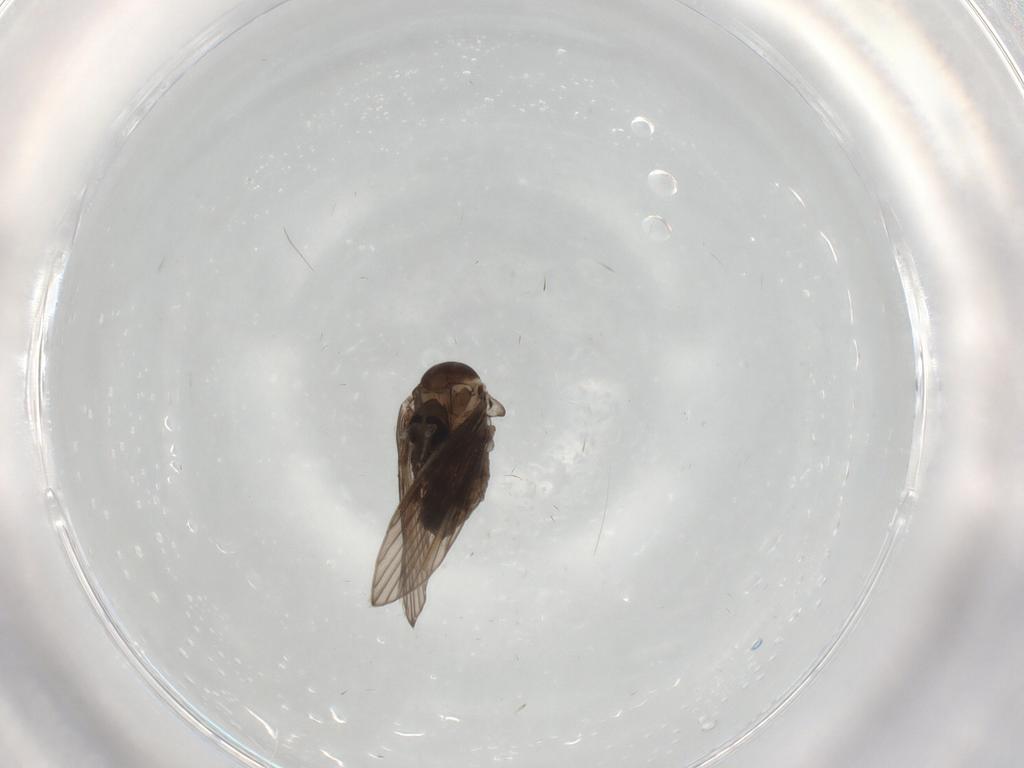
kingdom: Animalia
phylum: Arthropoda
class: Insecta
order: Diptera
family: Psychodidae
